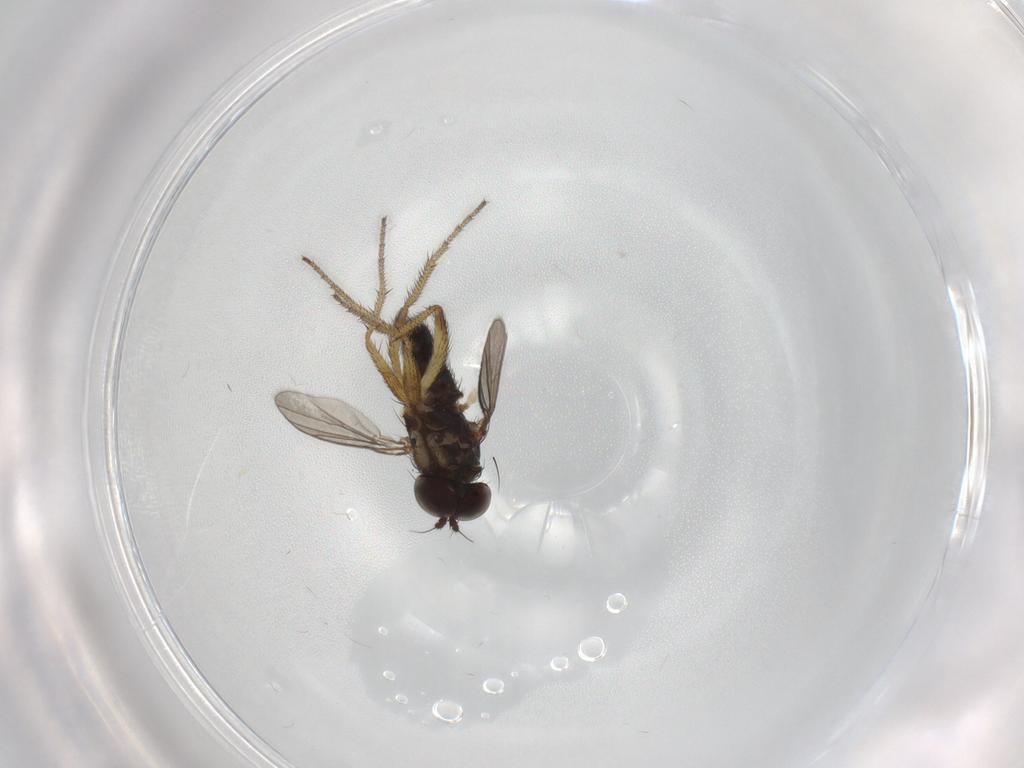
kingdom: Animalia
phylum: Arthropoda
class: Insecta
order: Diptera
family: Dolichopodidae
